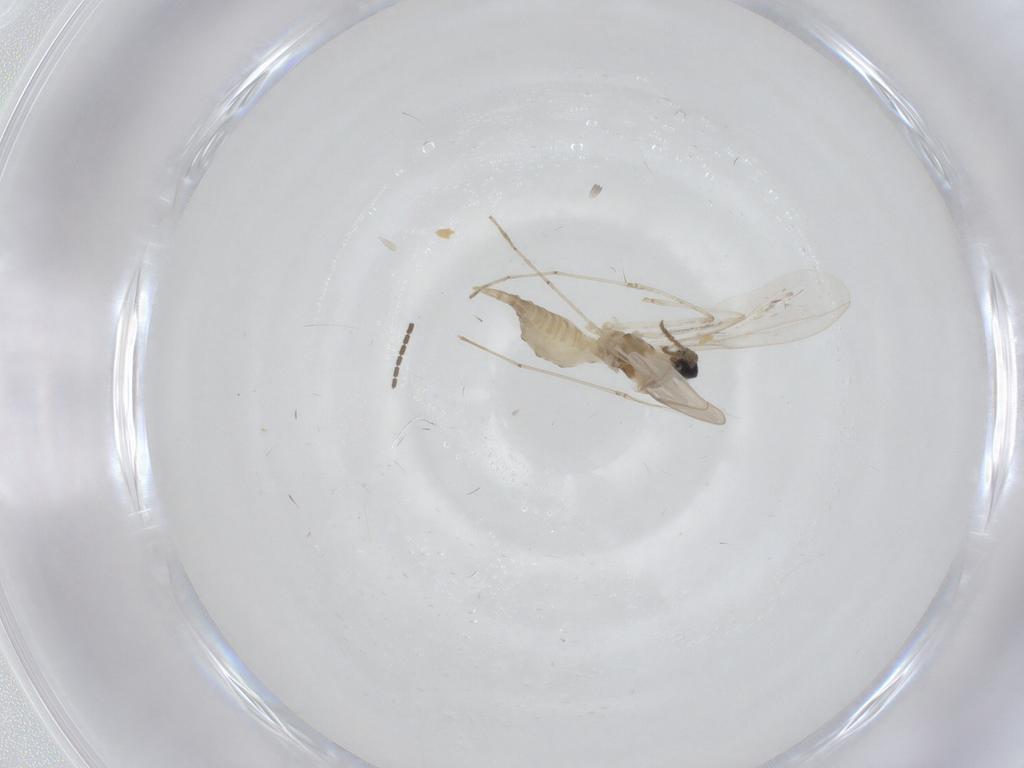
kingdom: Animalia
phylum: Arthropoda
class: Insecta
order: Diptera
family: Cecidomyiidae
